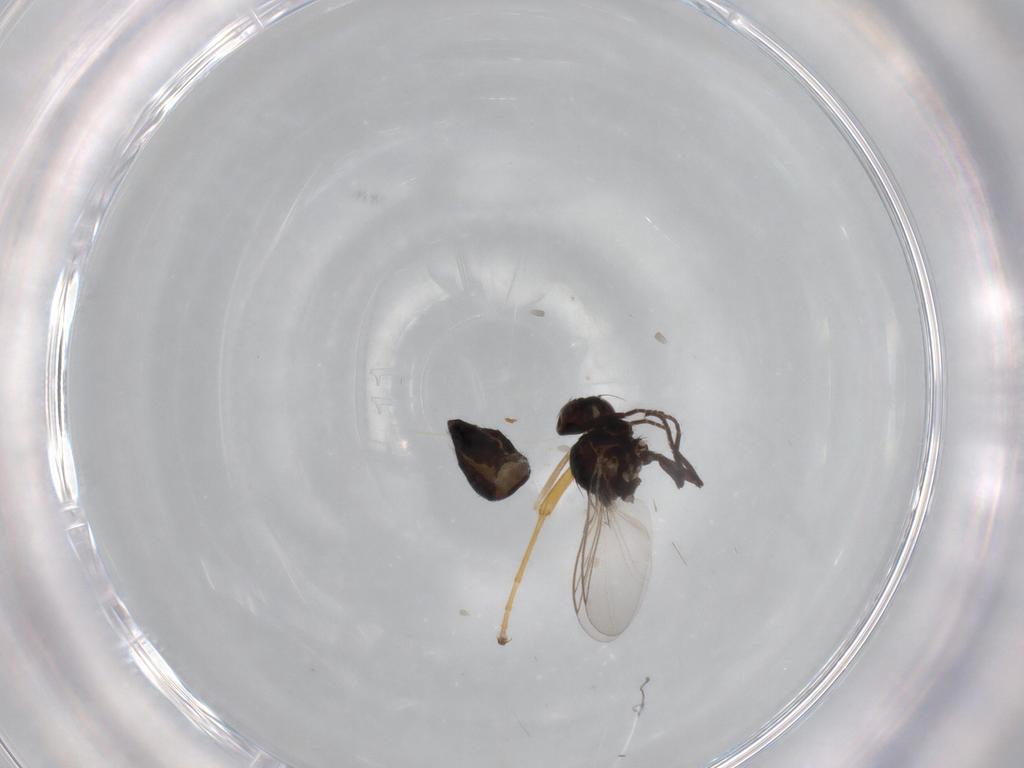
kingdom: Animalia
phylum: Arthropoda
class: Insecta
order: Diptera
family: Agromyzidae
